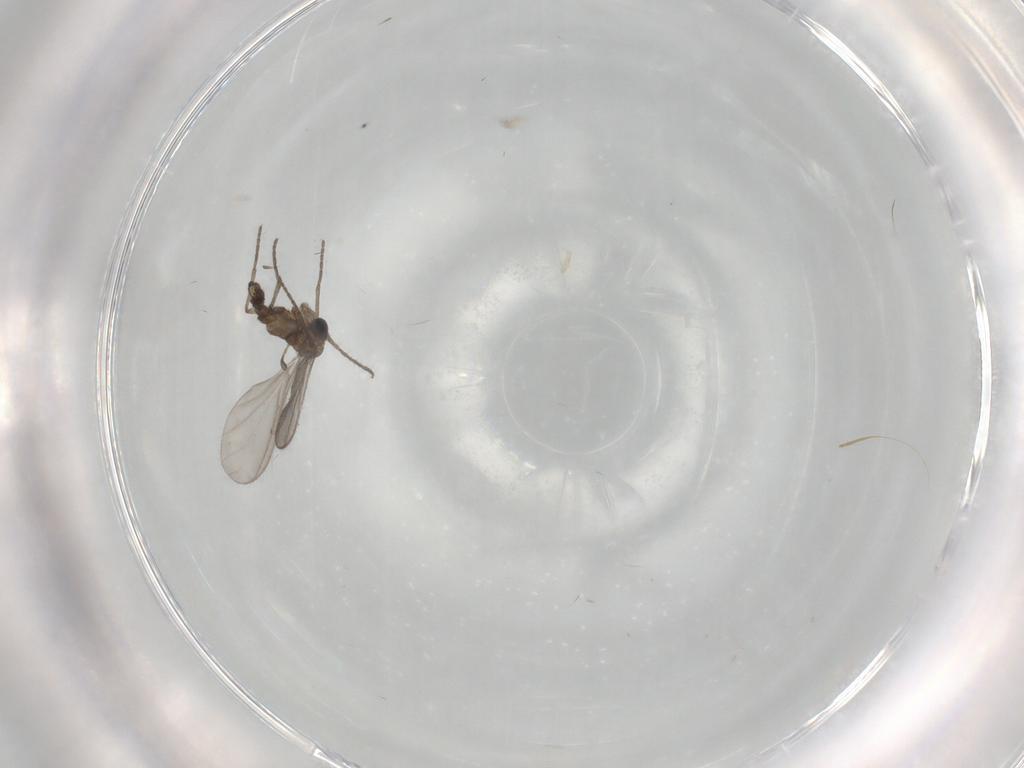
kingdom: Animalia
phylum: Arthropoda
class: Insecta
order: Diptera
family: Sciaridae
